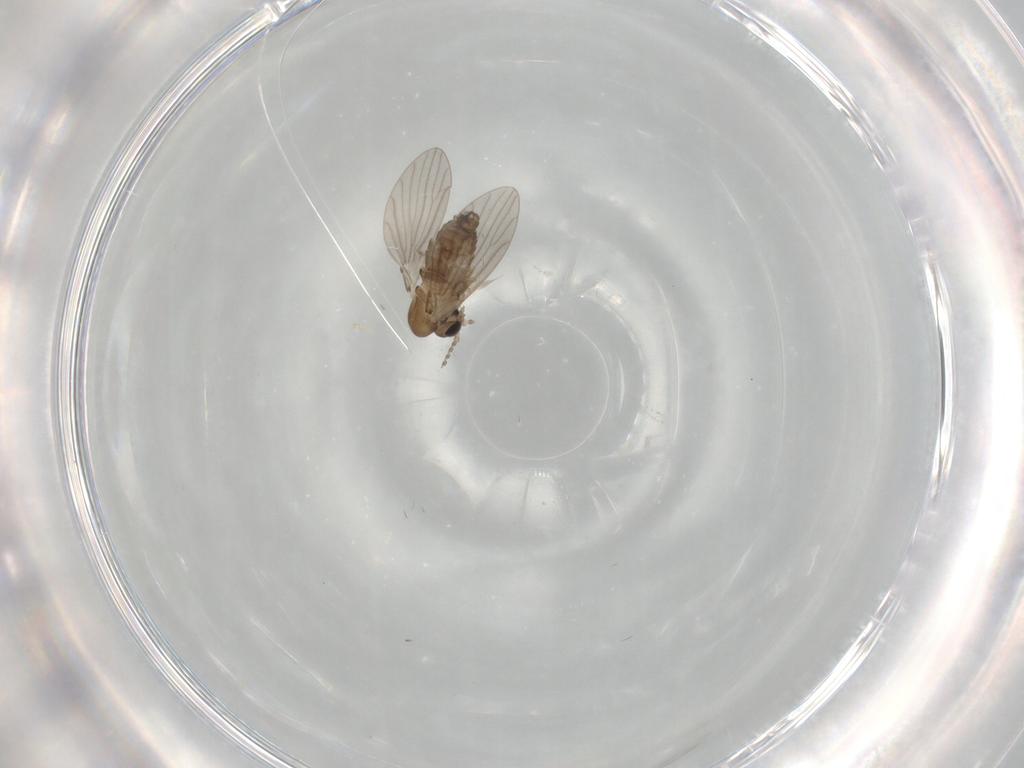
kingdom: Animalia
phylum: Arthropoda
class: Insecta
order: Diptera
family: Cecidomyiidae
